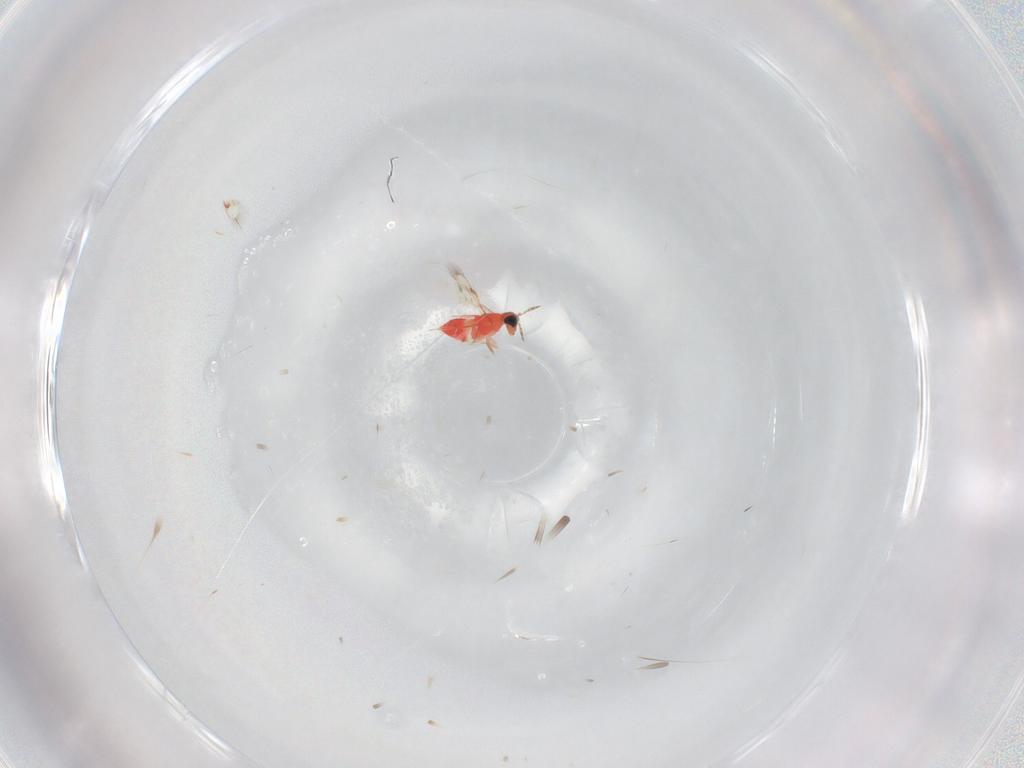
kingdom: Animalia
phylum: Arthropoda
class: Insecta
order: Hymenoptera
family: Trichogrammatidae
